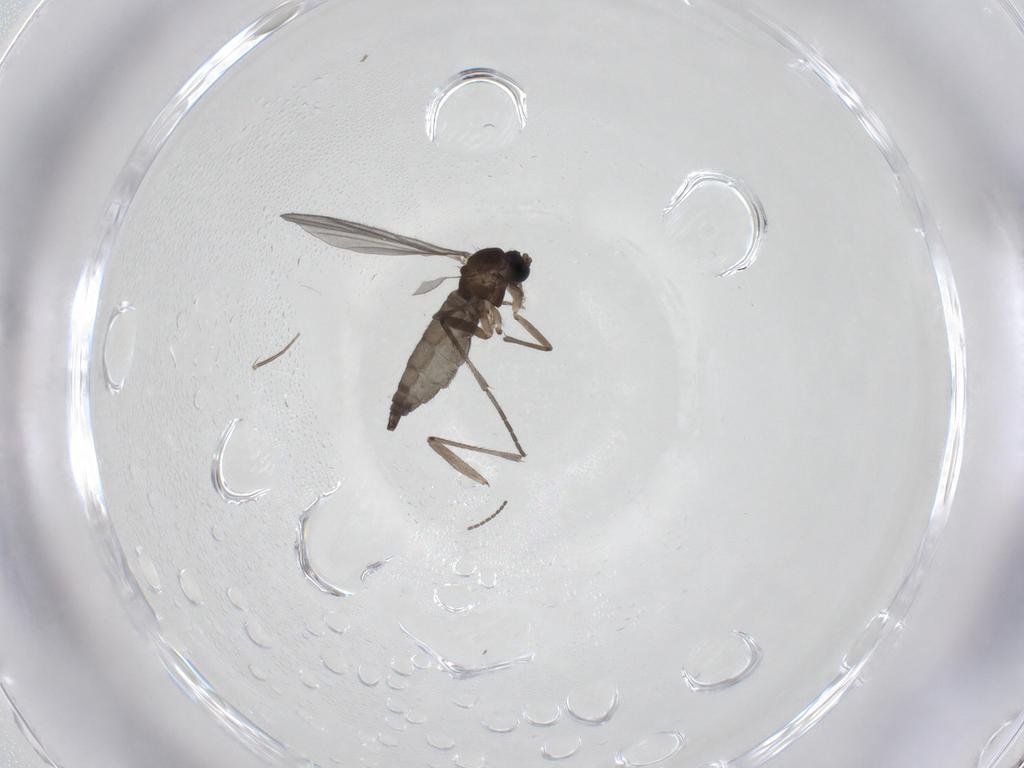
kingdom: Animalia
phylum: Arthropoda
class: Insecta
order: Diptera
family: Sciaridae
